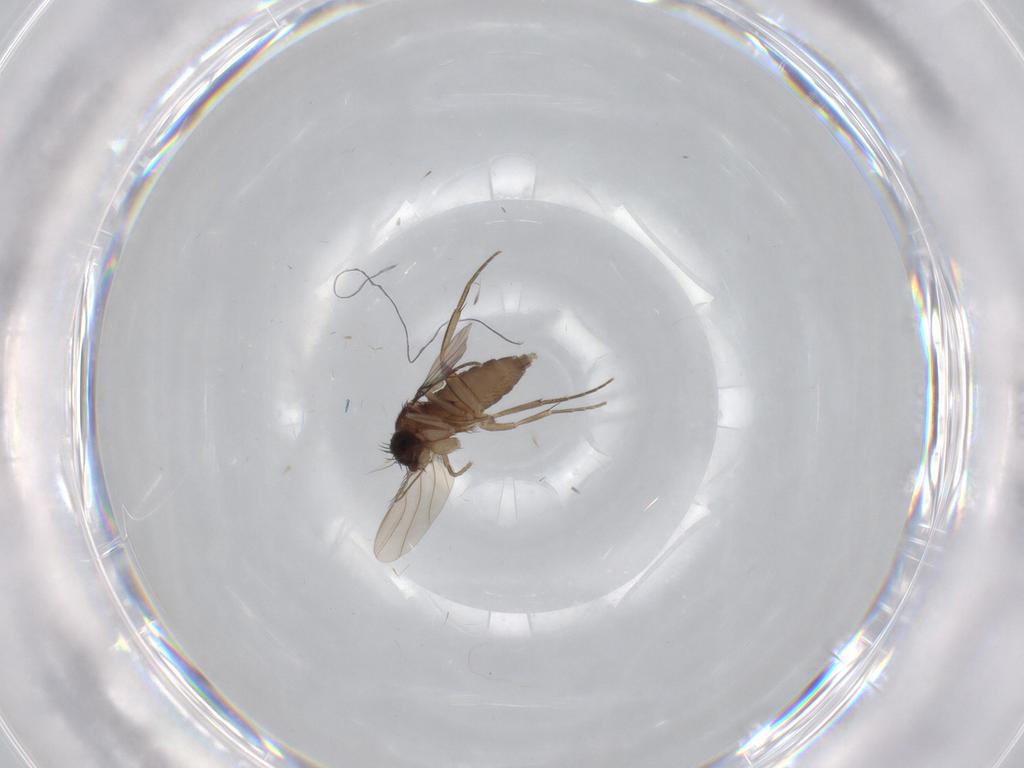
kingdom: Animalia
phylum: Arthropoda
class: Insecta
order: Diptera
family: Phoridae
